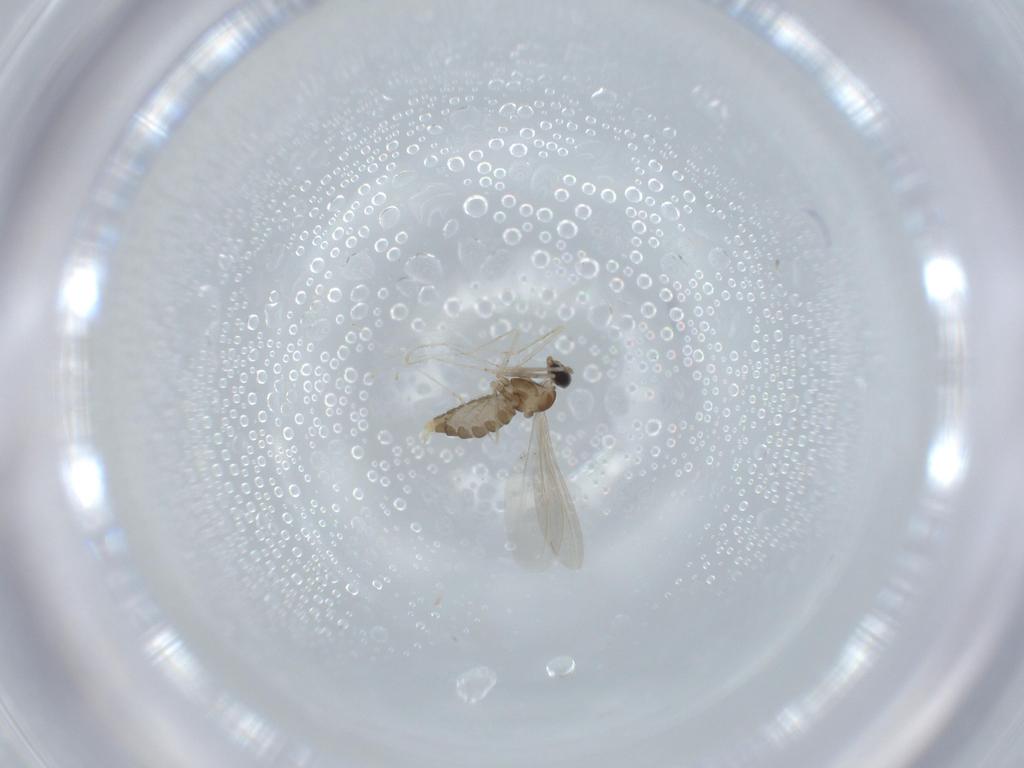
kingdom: Animalia
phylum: Arthropoda
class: Insecta
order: Diptera
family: Cecidomyiidae
